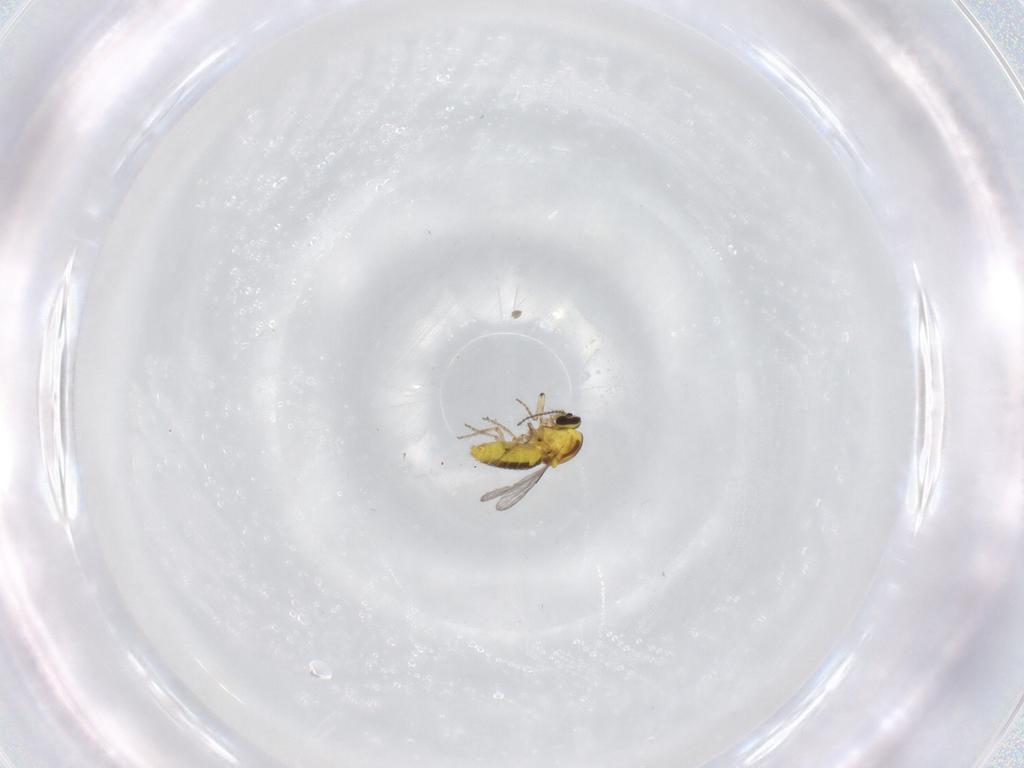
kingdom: Animalia
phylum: Arthropoda
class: Insecta
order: Diptera
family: Ceratopogonidae
